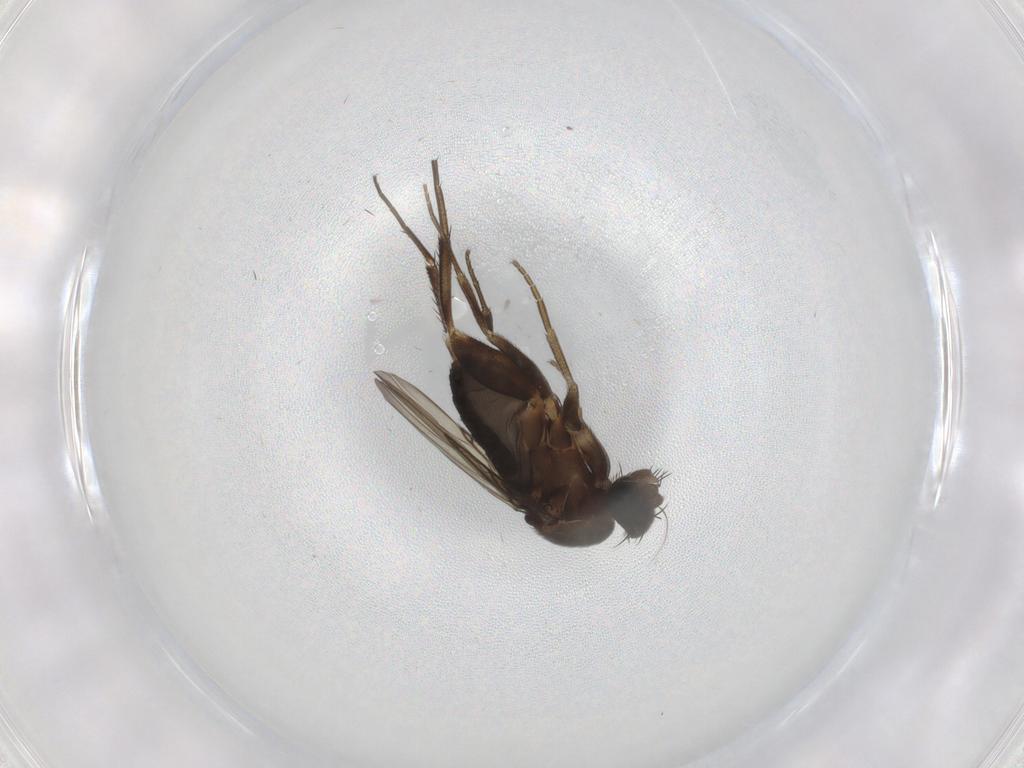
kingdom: Animalia
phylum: Arthropoda
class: Insecta
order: Diptera
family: Phoridae
